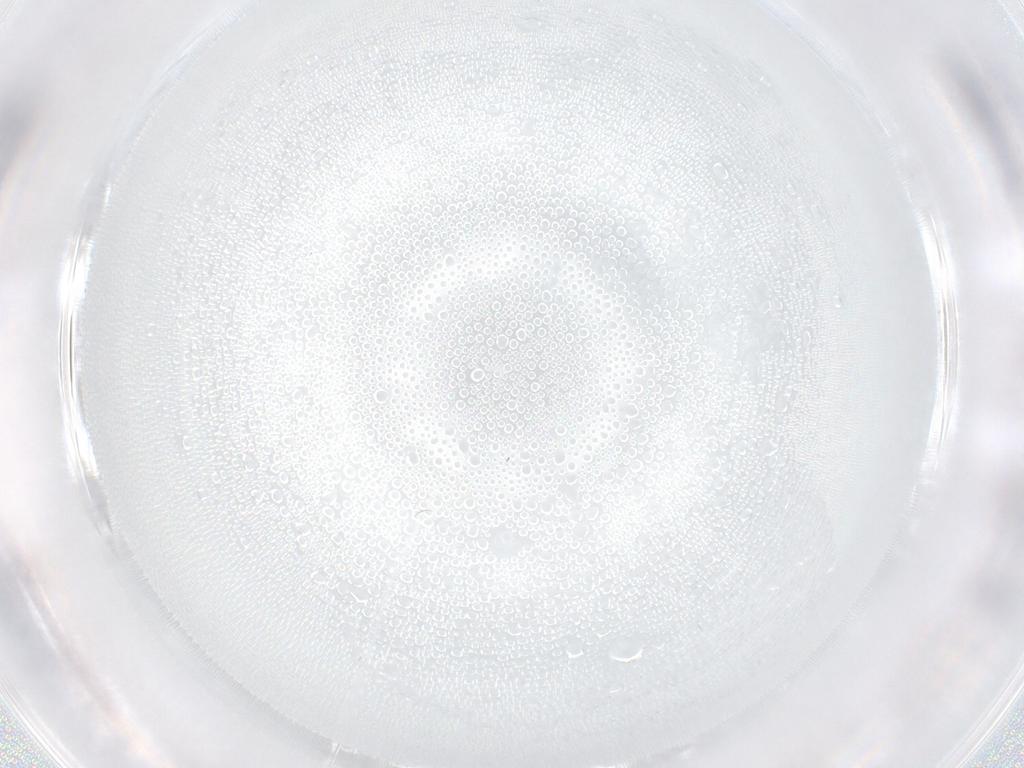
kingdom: Animalia
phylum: Arthropoda
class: Insecta
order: Diptera
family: Cecidomyiidae
